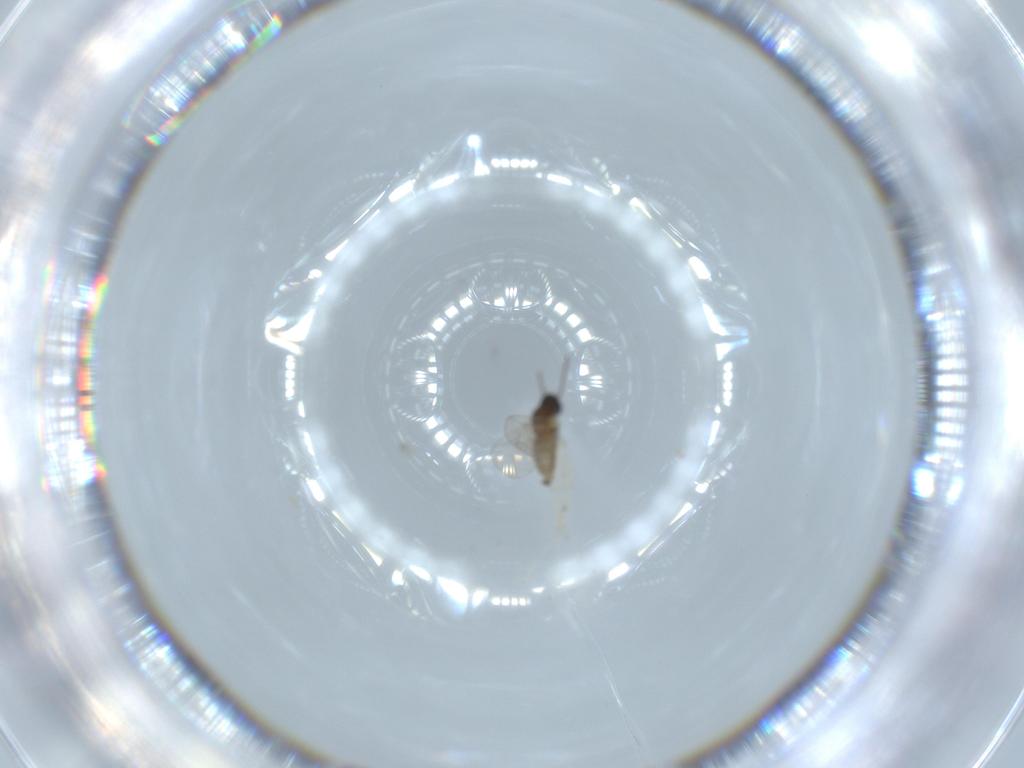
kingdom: Animalia
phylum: Arthropoda
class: Insecta
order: Diptera
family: Cecidomyiidae
